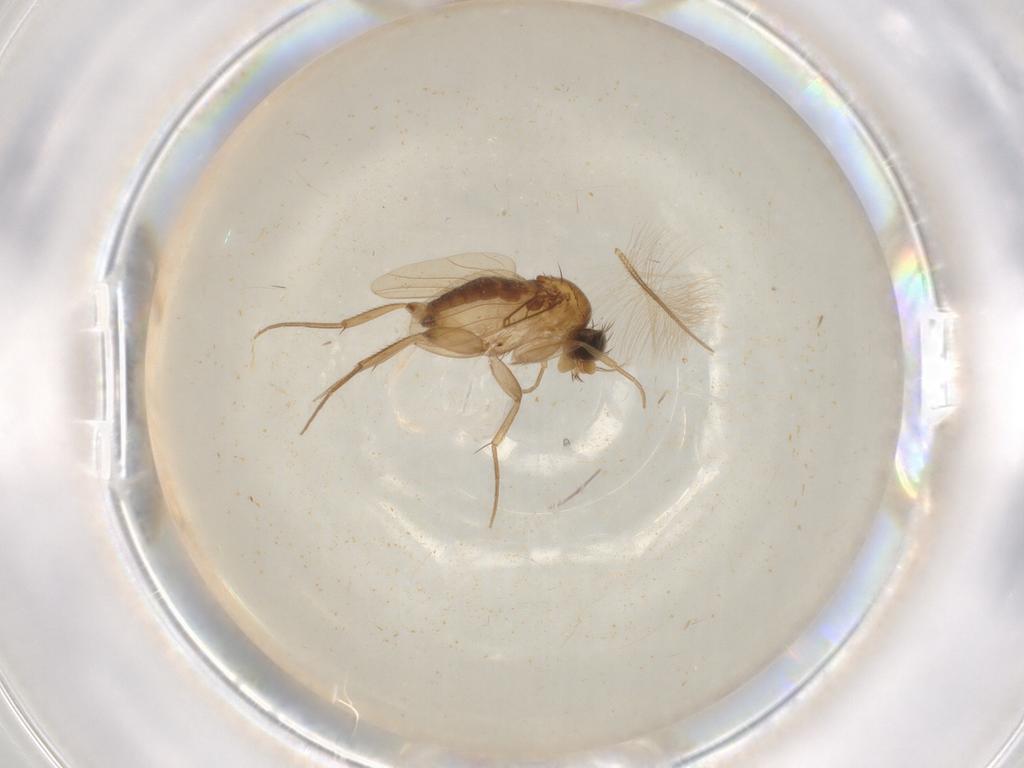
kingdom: Animalia
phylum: Arthropoda
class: Insecta
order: Diptera
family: Phoridae
